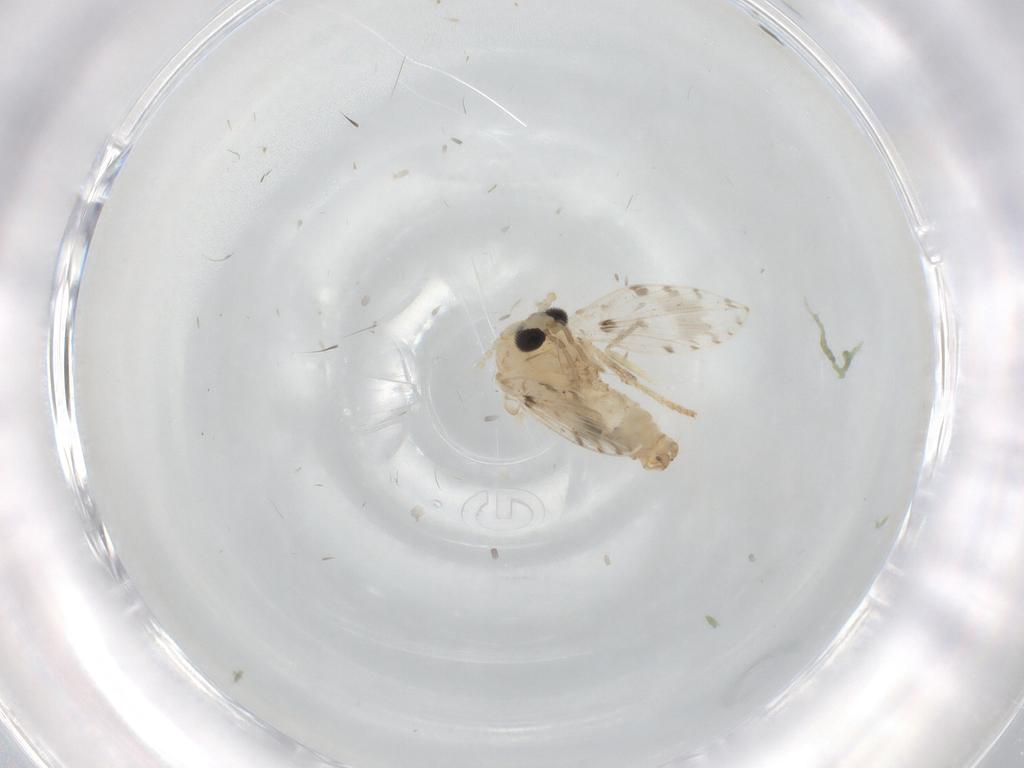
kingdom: Animalia
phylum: Arthropoda
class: Insecta
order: Diptera
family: Psychodidae
